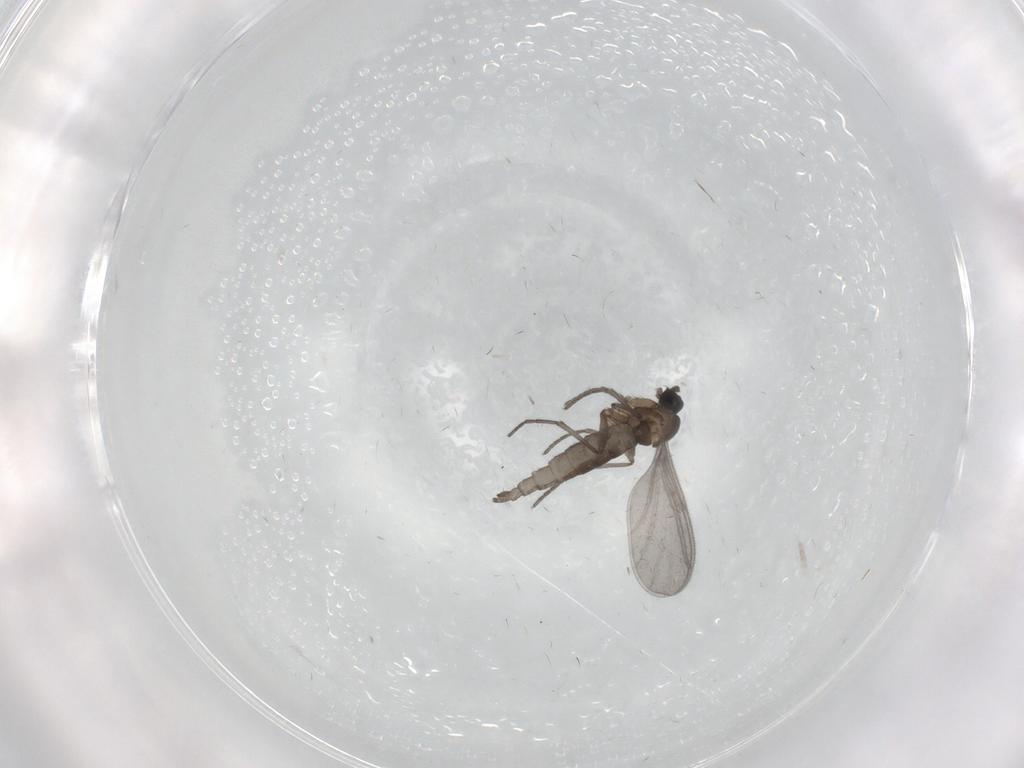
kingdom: Animalia
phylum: Arthropoda
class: Insecta
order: Diptera
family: Sciaridae
